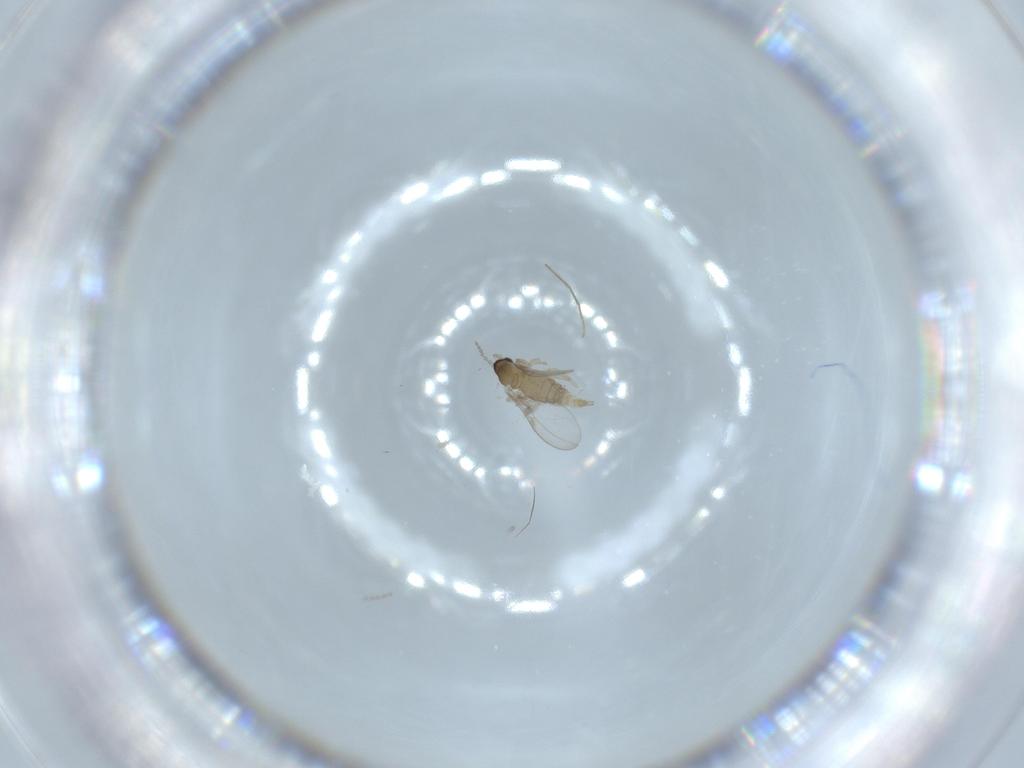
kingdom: Animalia
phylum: Arthropoda
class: Insecta
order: Diptera
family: Cecidomyiidae
